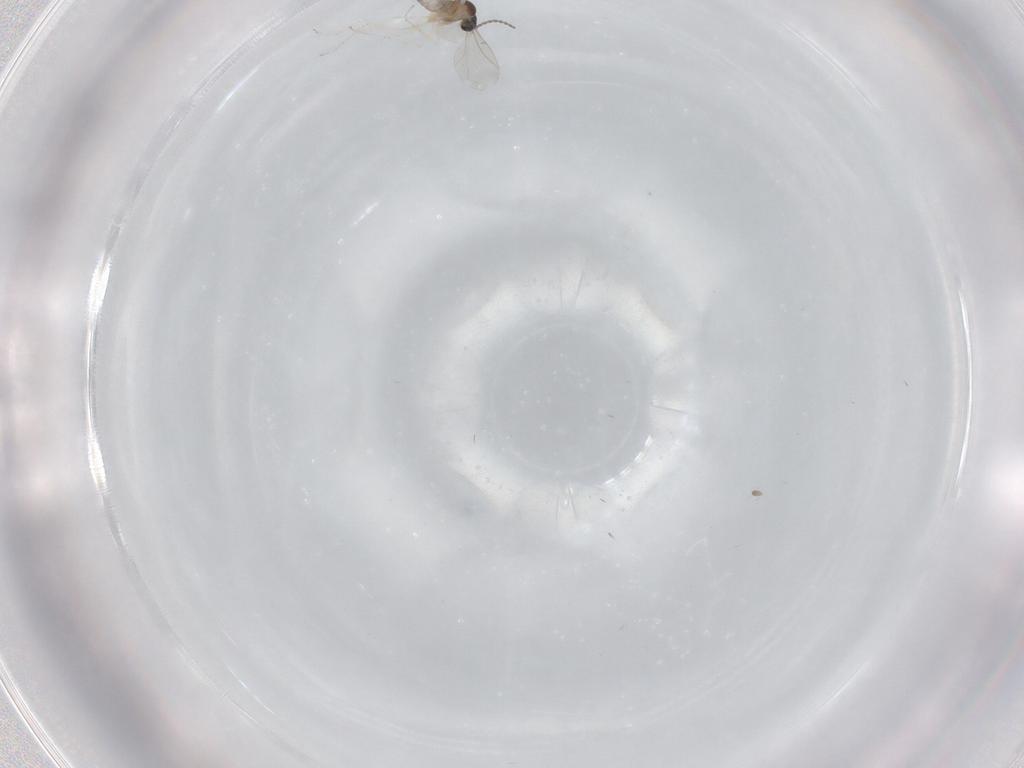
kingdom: Animalia
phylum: Arthropoda
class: Insecta
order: Diptera
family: Cecidomyiidae
